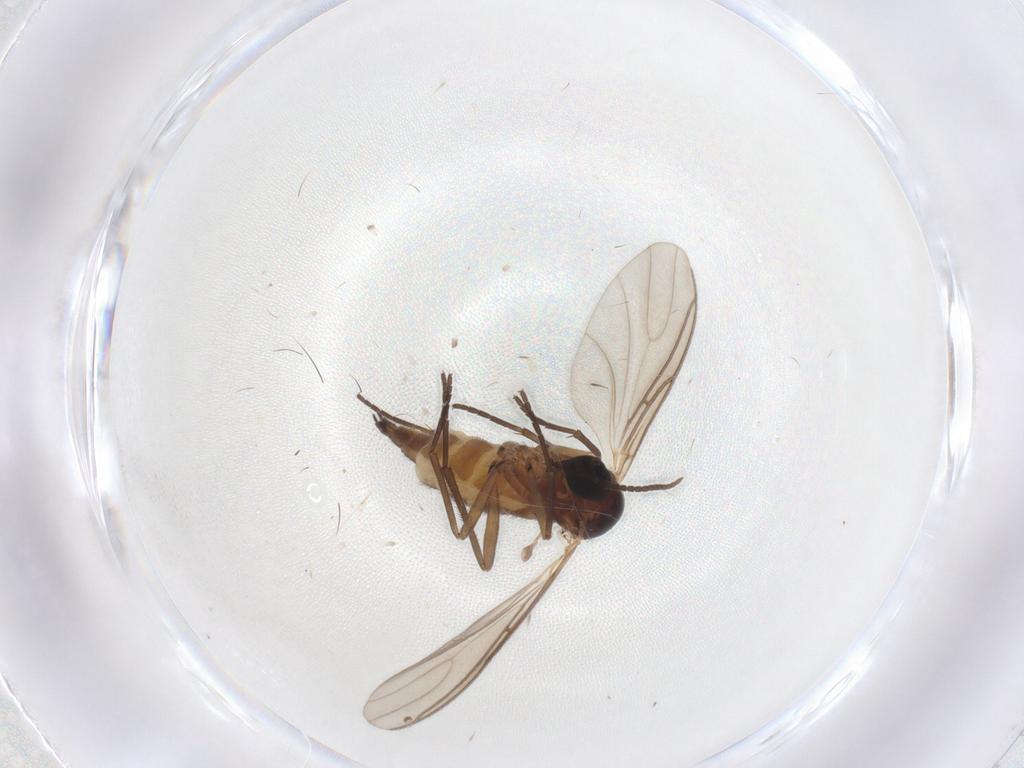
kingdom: Animalia
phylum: Arthropoda
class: Insecta
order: Diptera
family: Sciaridae
